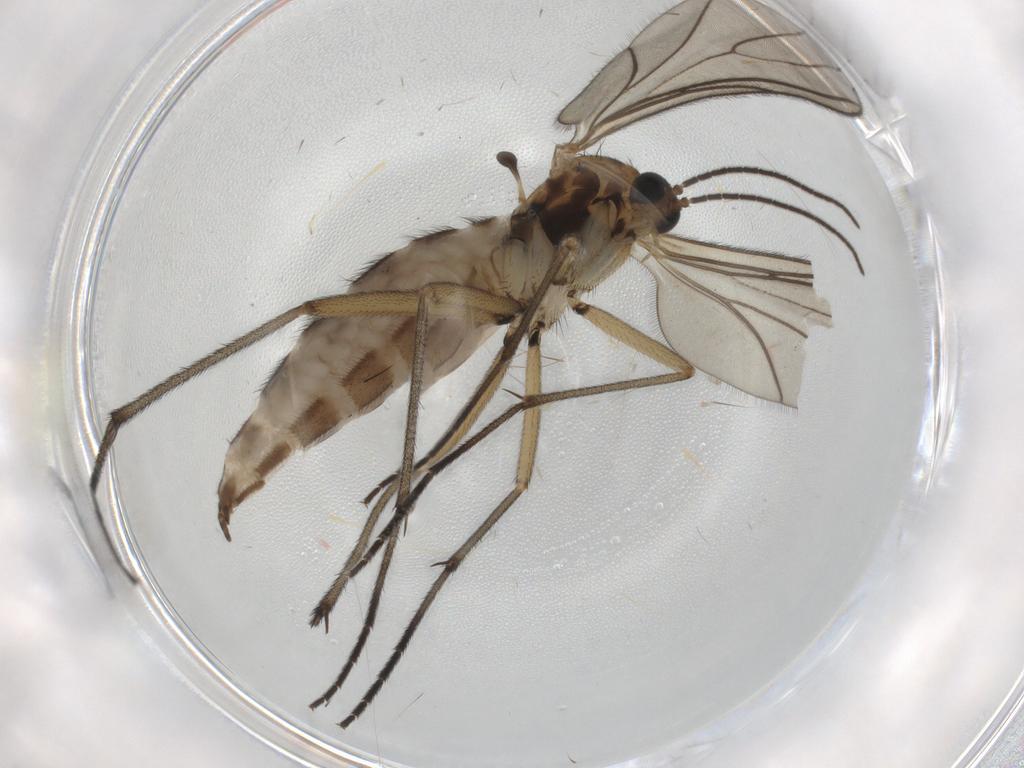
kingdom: Animalia
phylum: Arthropoda
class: Insecta
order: Diptera
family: Sciaridae
